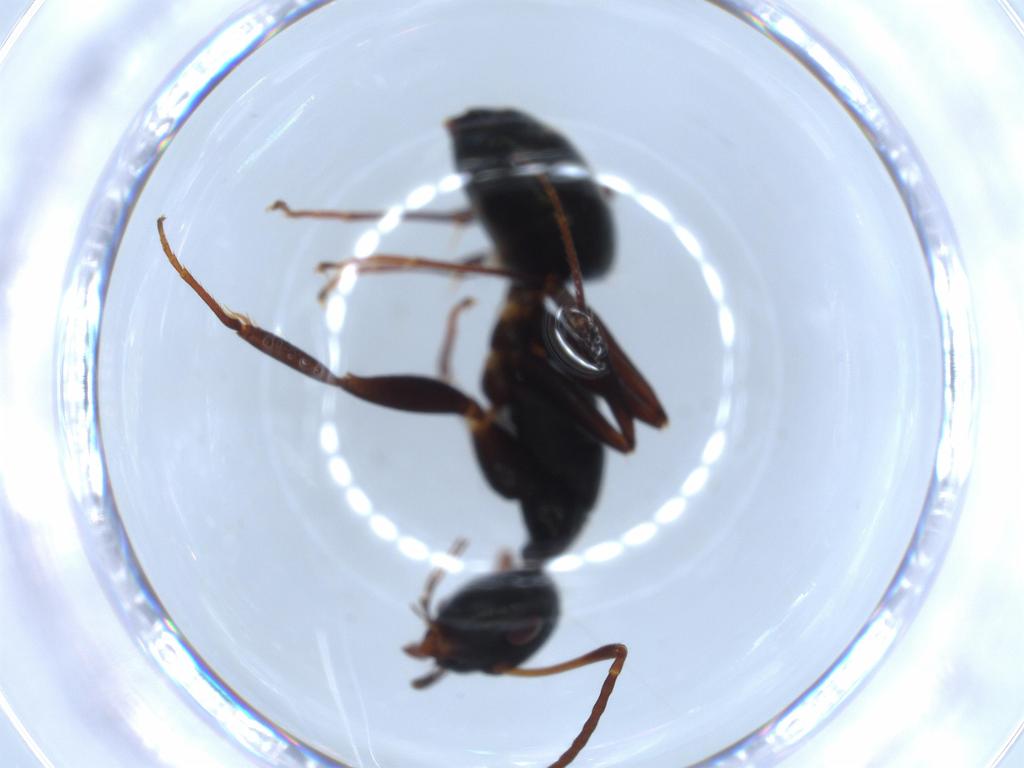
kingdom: Animalia
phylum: Arthropoda
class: Insecta
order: Hymenoptera
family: Formicidae
